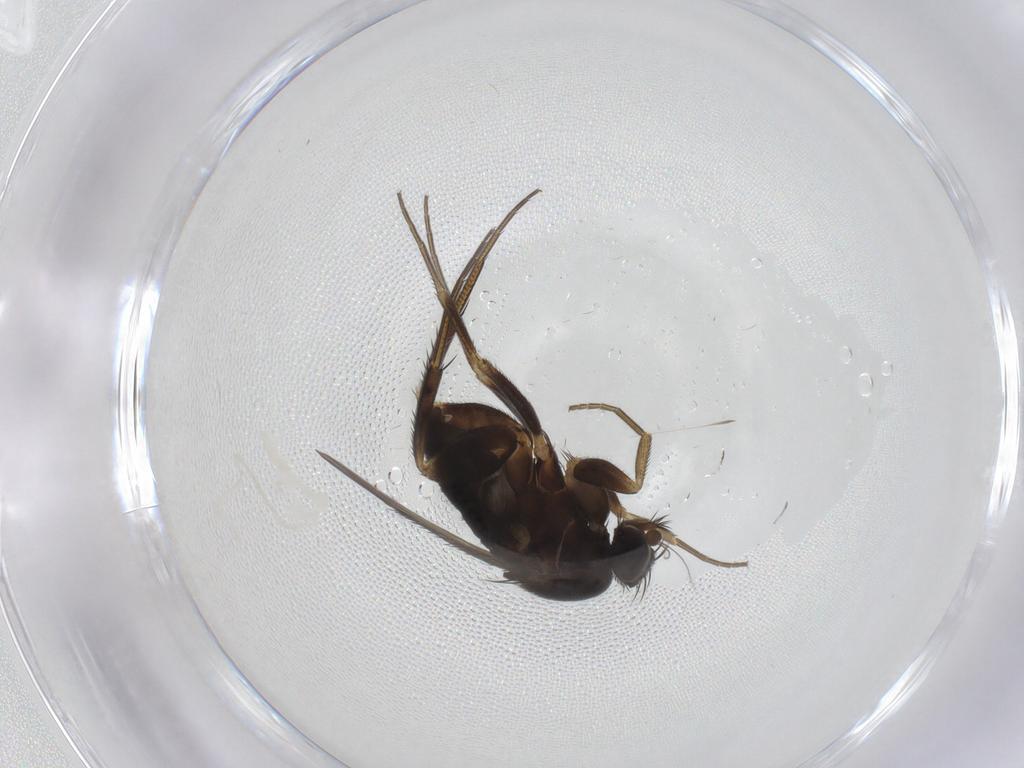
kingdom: Animalia
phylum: Arthropoda
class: Insecta
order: Diptera
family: Phoridae
